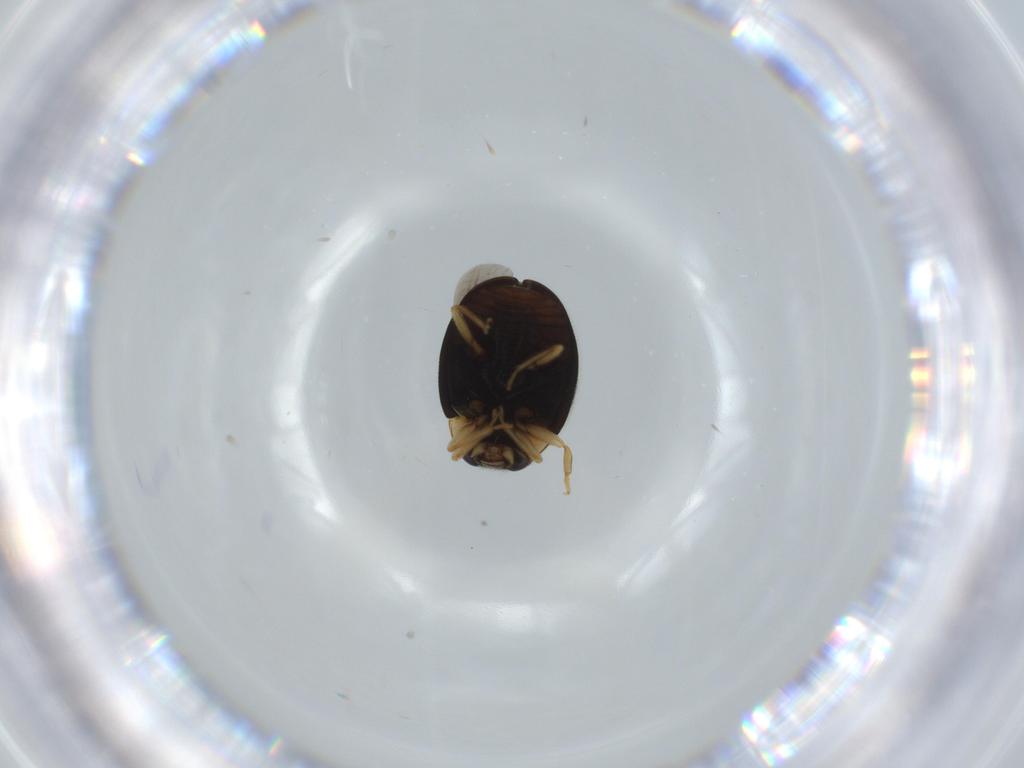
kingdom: Animalia
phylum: Arthropoda
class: Insecta
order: Coleoptera
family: Coccinellidae
